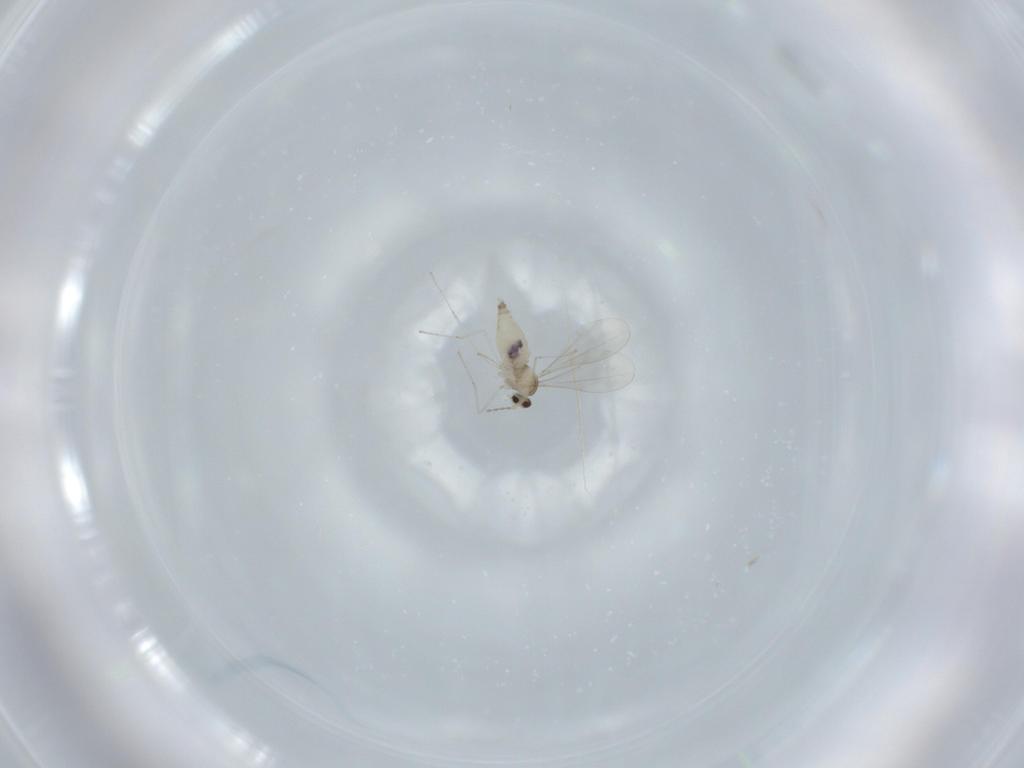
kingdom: Animalia
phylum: Arthropoda
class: Insecta
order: Diptera
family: Cecidomyiidae
